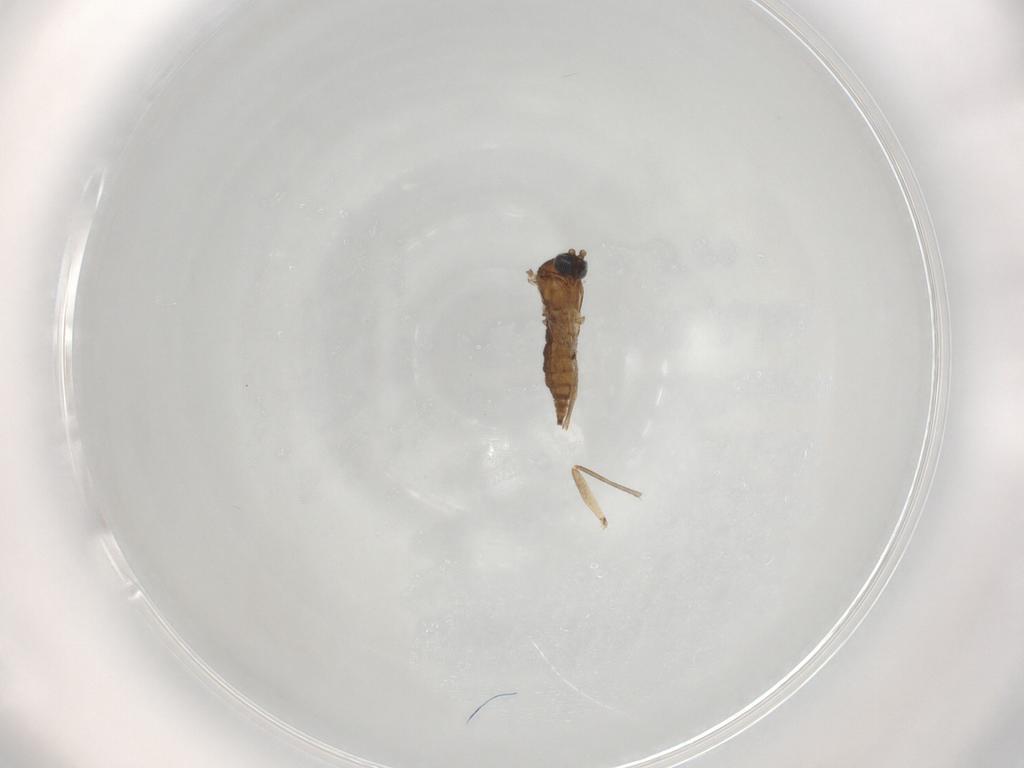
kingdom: Animalia
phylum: Arthropoda
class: Insecta
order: Diptera
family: Sciaridae
